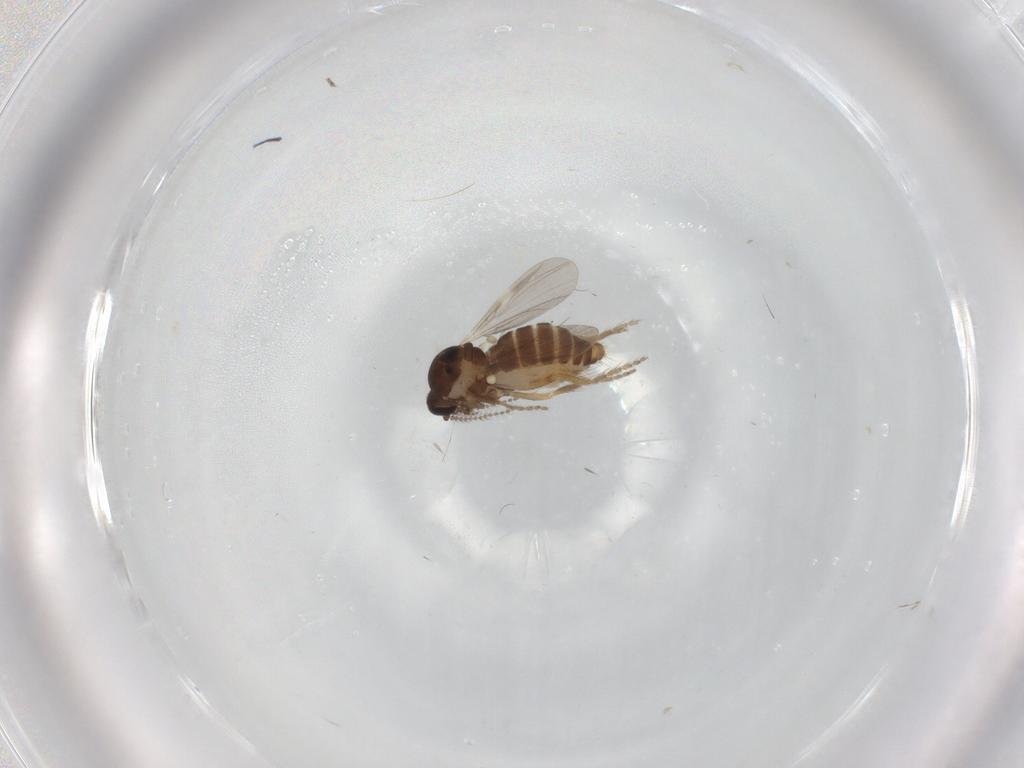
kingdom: Animalia
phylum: Arthropoda
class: Insecta
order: Diptera
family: Ceratopogonidae
